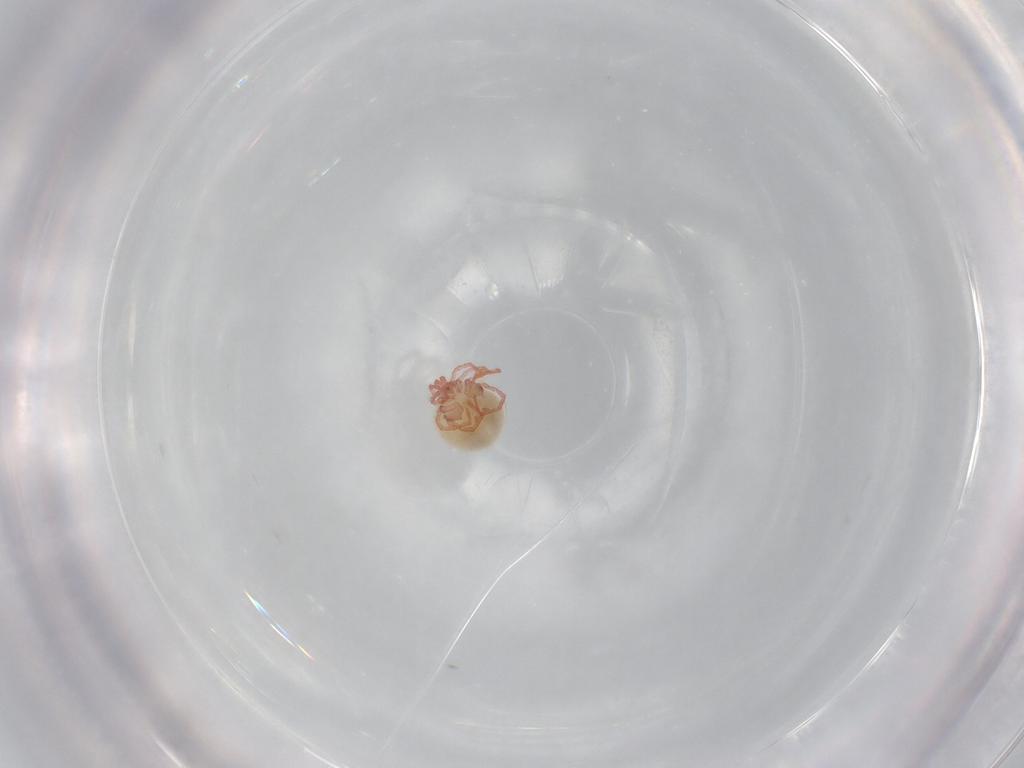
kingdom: Animalia
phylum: Arthropoda
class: Arachnida
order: Trombidiformes
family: Pionidae
